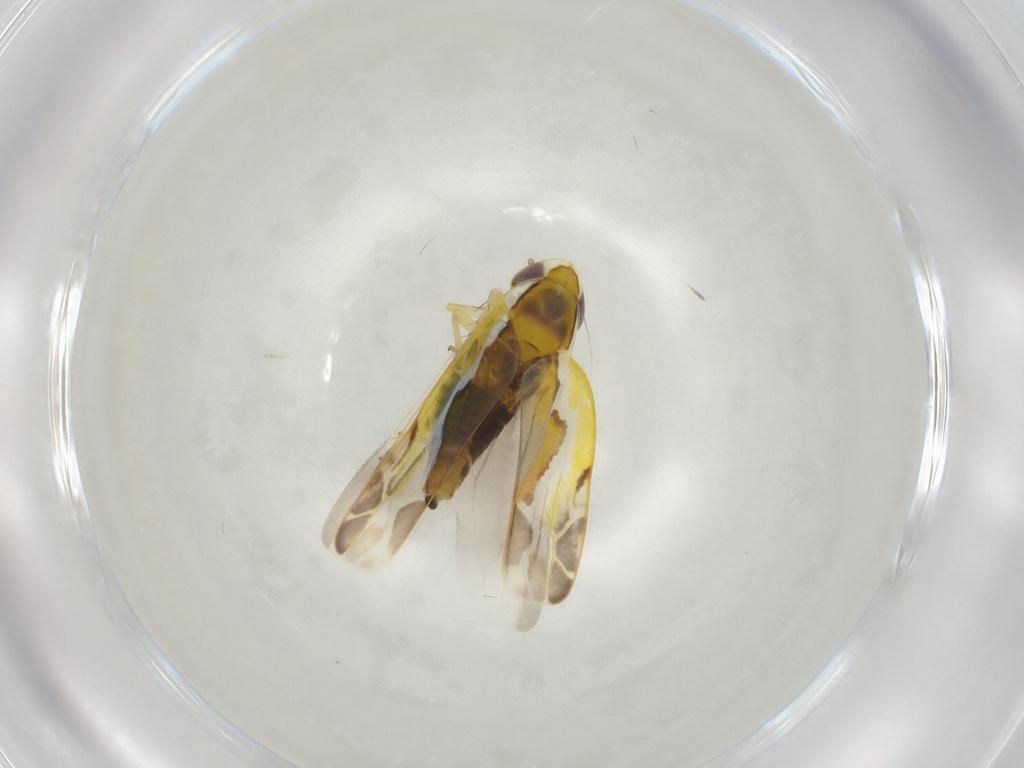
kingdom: Animalia
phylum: Arthropoda
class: Insecta
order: Hemiptera
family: Cicadellidae
